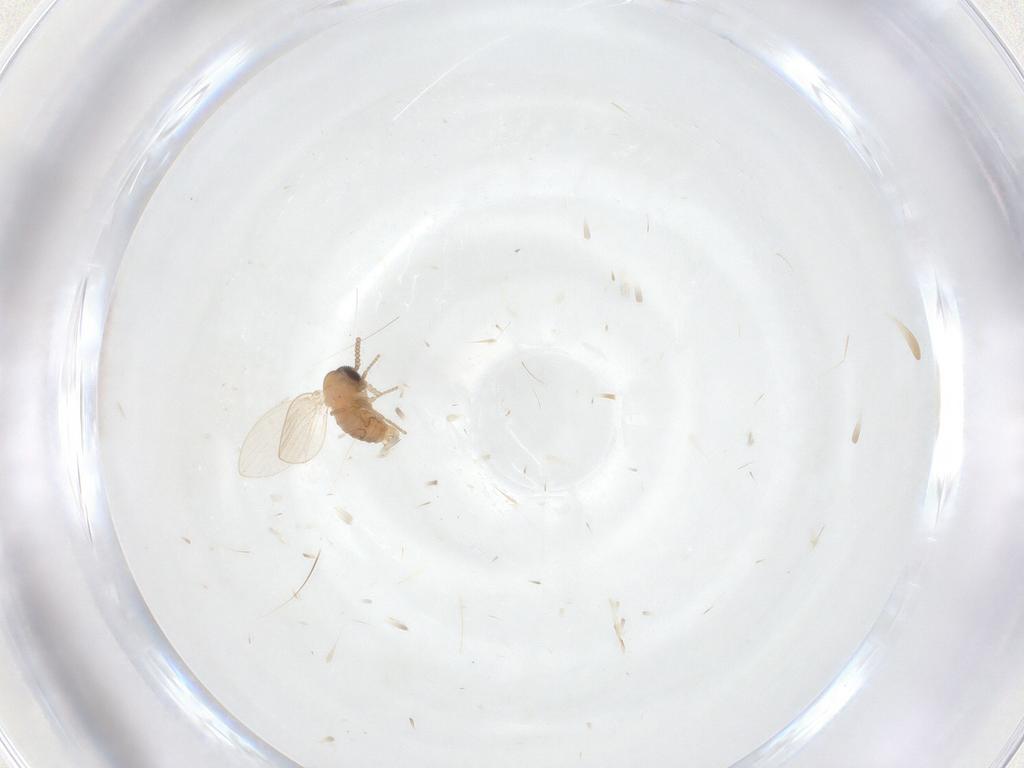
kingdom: Animalia
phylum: Arthropoda
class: Insecta
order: Diptera
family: Psychodidae
